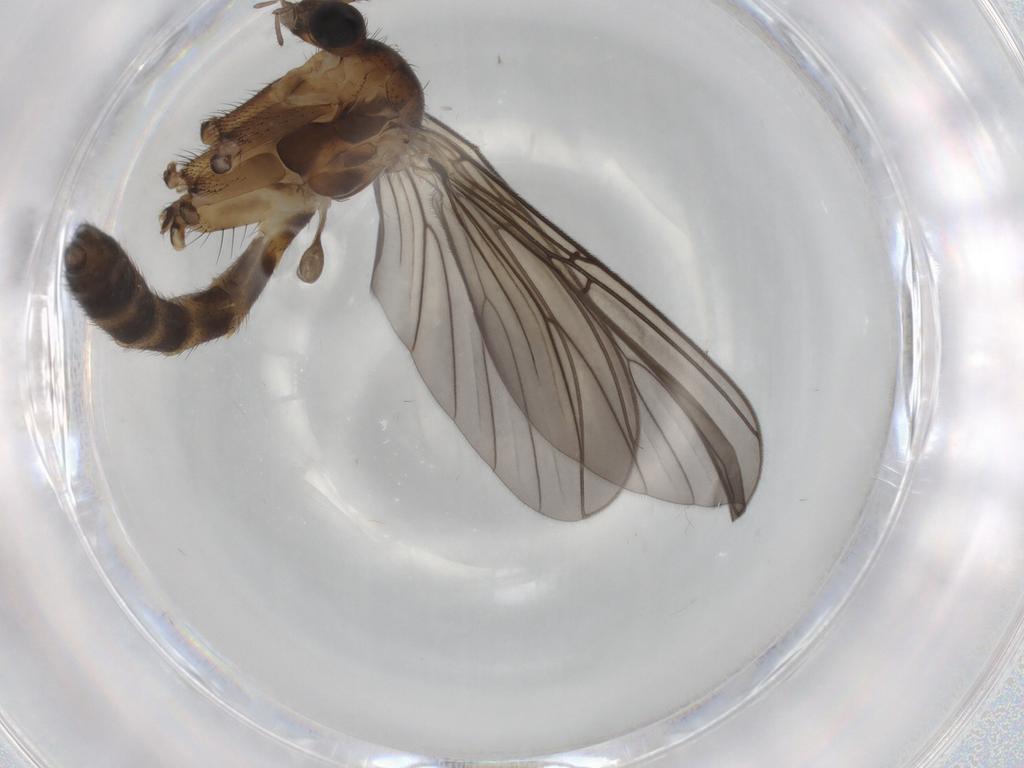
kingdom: Animalia
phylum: Arthropoda
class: Insecta
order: Diptera
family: Mycetophilidae
